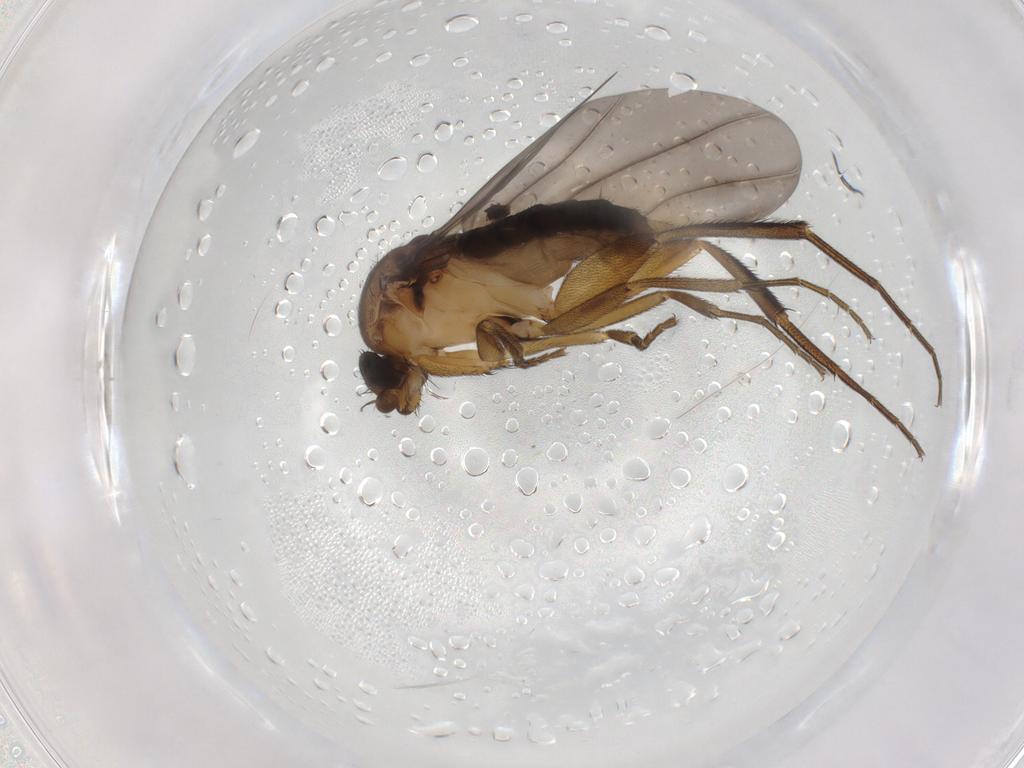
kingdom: Animalia
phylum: Arthropoda
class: Insecta
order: Diptera
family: Phoridae
